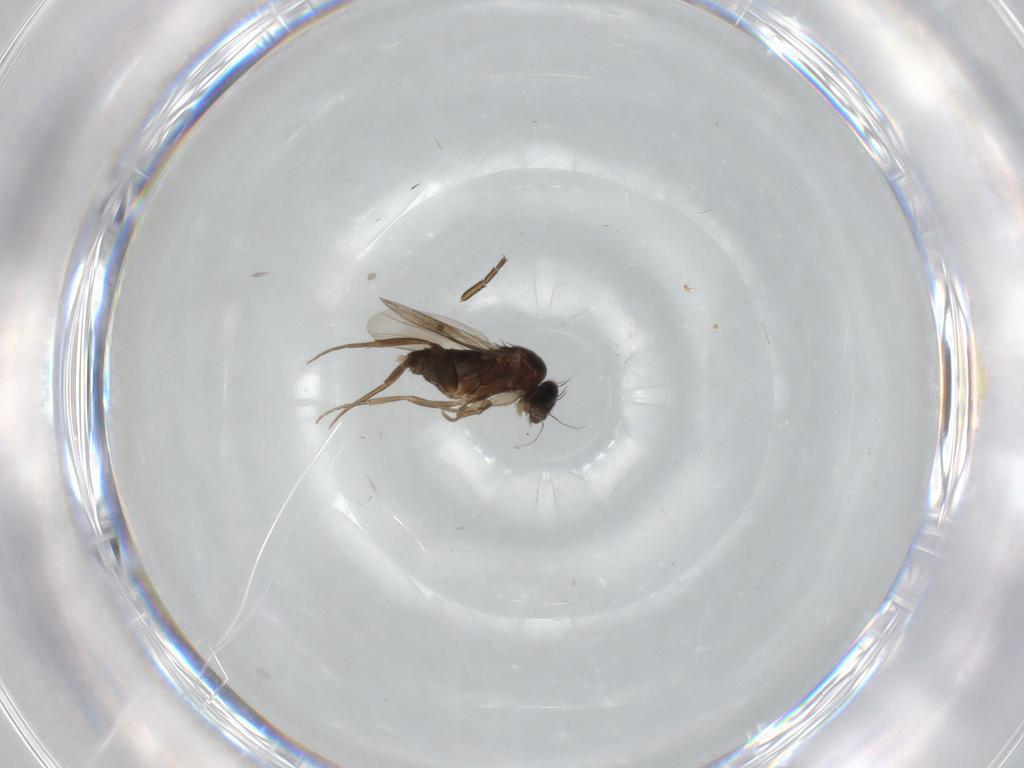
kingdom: Animalia
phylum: Arthropoda
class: Insecta
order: Diptera
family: Phoridae
